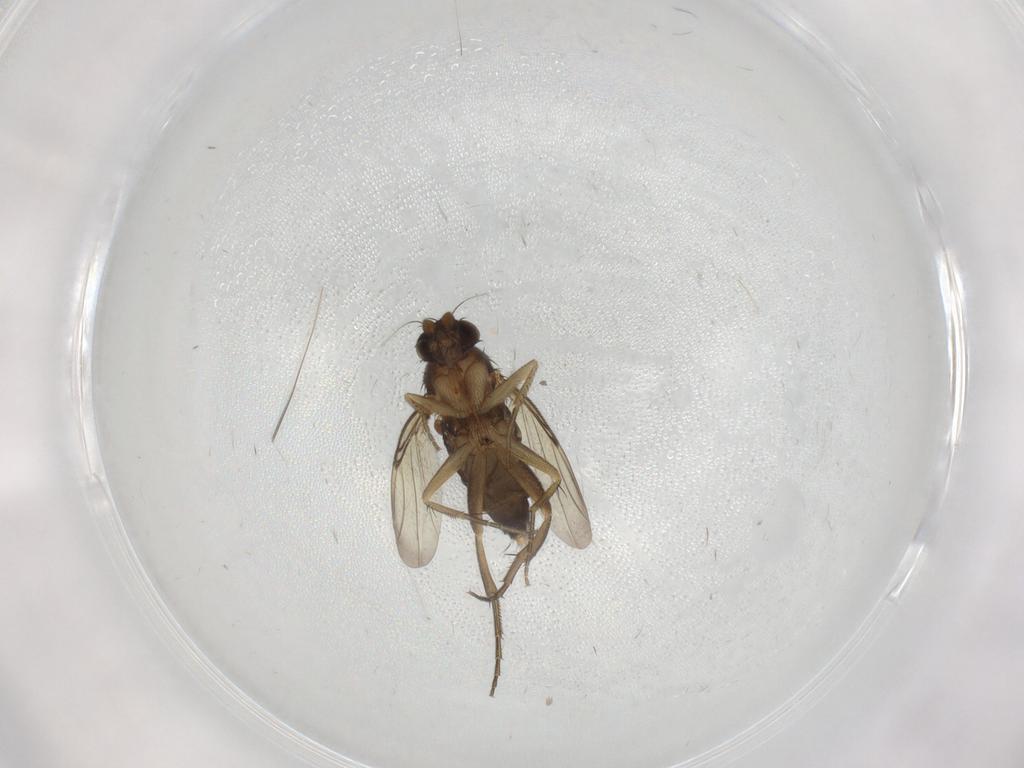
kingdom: Animalia
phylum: Arthropoda
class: Insecta
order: Diptera
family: Phoridae
